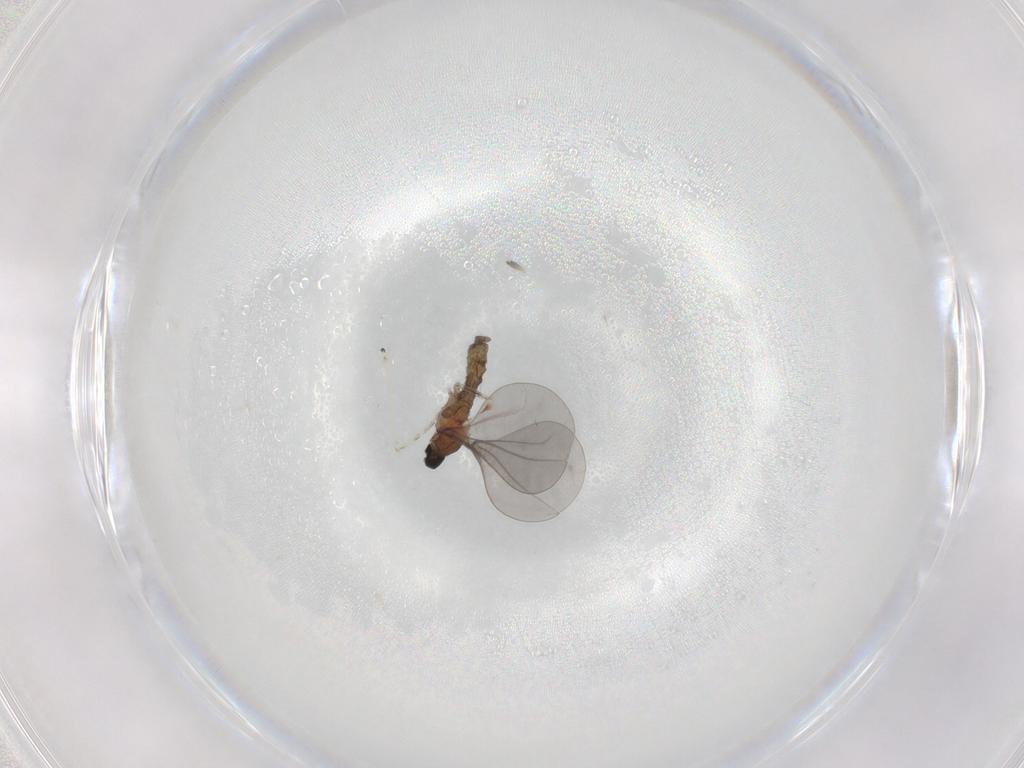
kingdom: Animalia
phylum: Arthropoda
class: Insecta
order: Diptera
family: Cecidomyiidae
